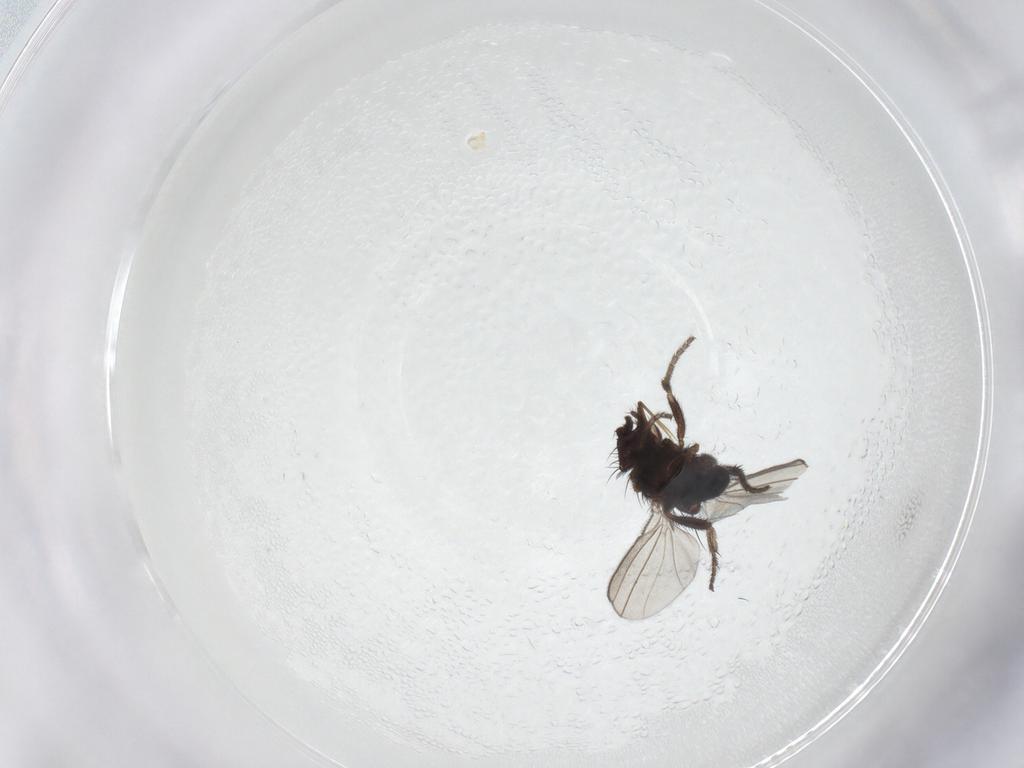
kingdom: Animalia
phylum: Arthropoda
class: Insecta
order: Diptera
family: Milichiidae
